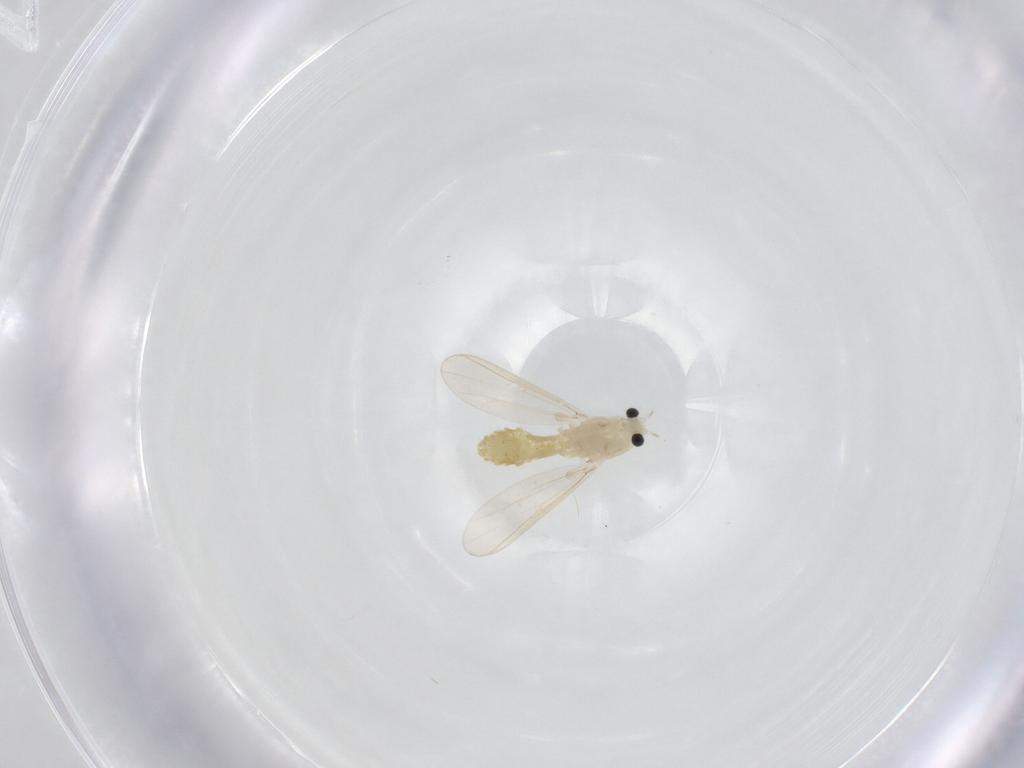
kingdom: Animalia
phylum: Arthropoda
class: Insecta
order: Diptera
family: Chironomidae
